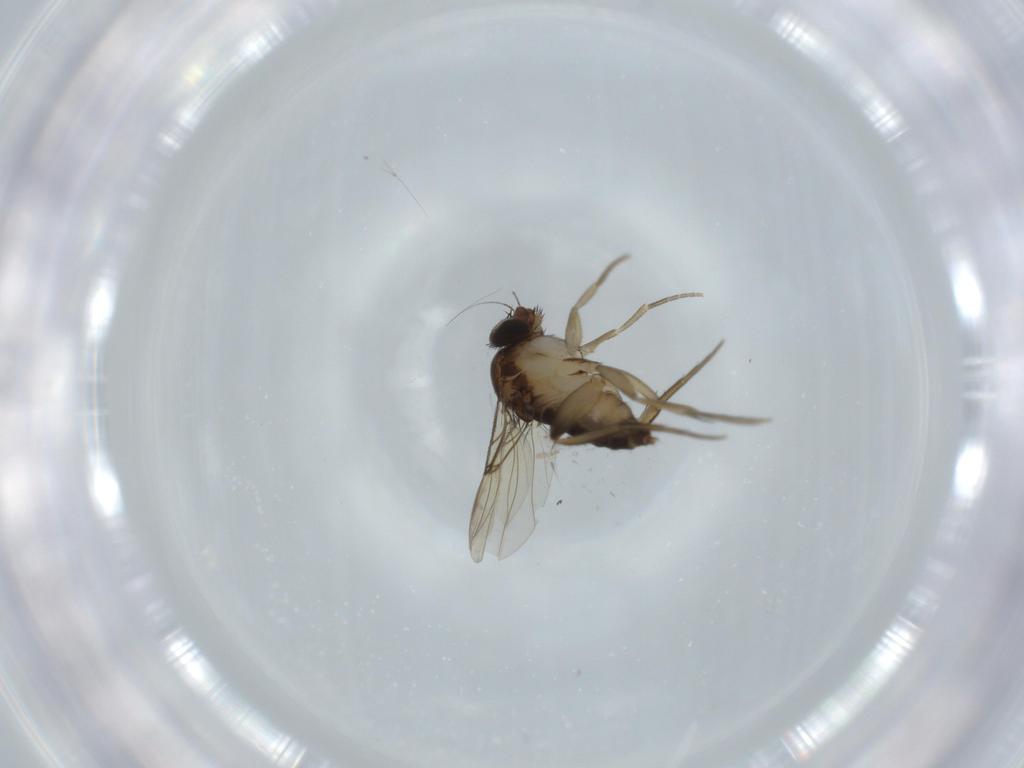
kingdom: Animalia
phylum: Arthropoda
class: Insecta
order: Diptera
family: Phoridae
